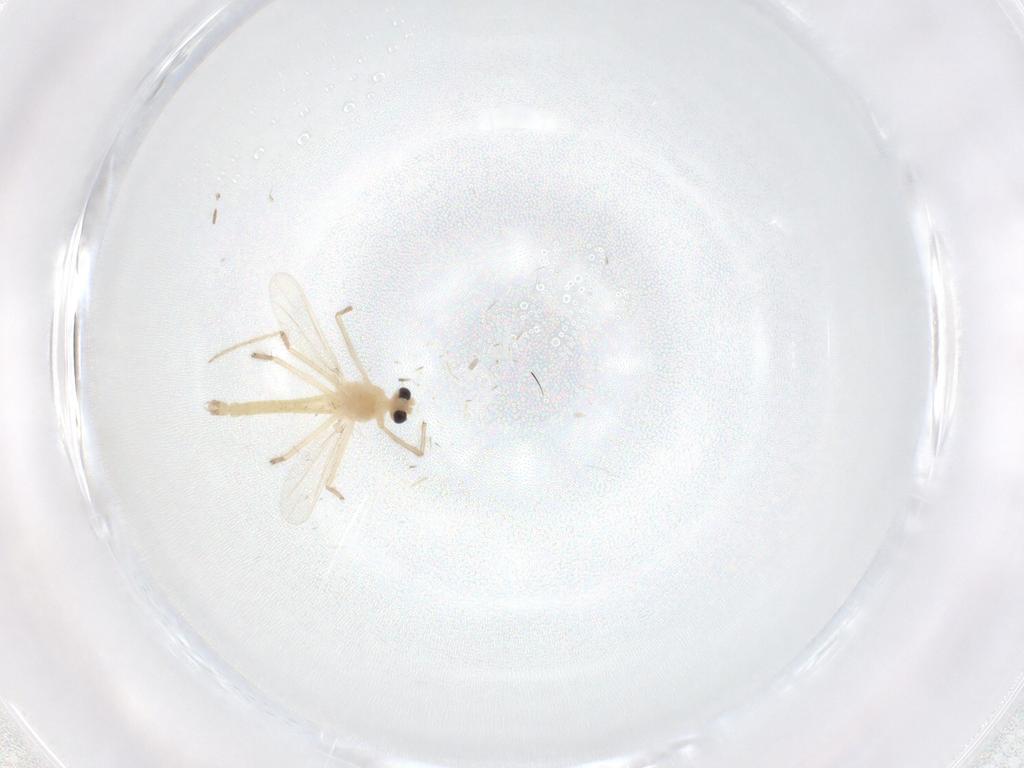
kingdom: Animalia
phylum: Arthropoda
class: Insecta
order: Diptera
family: Chironomidae
